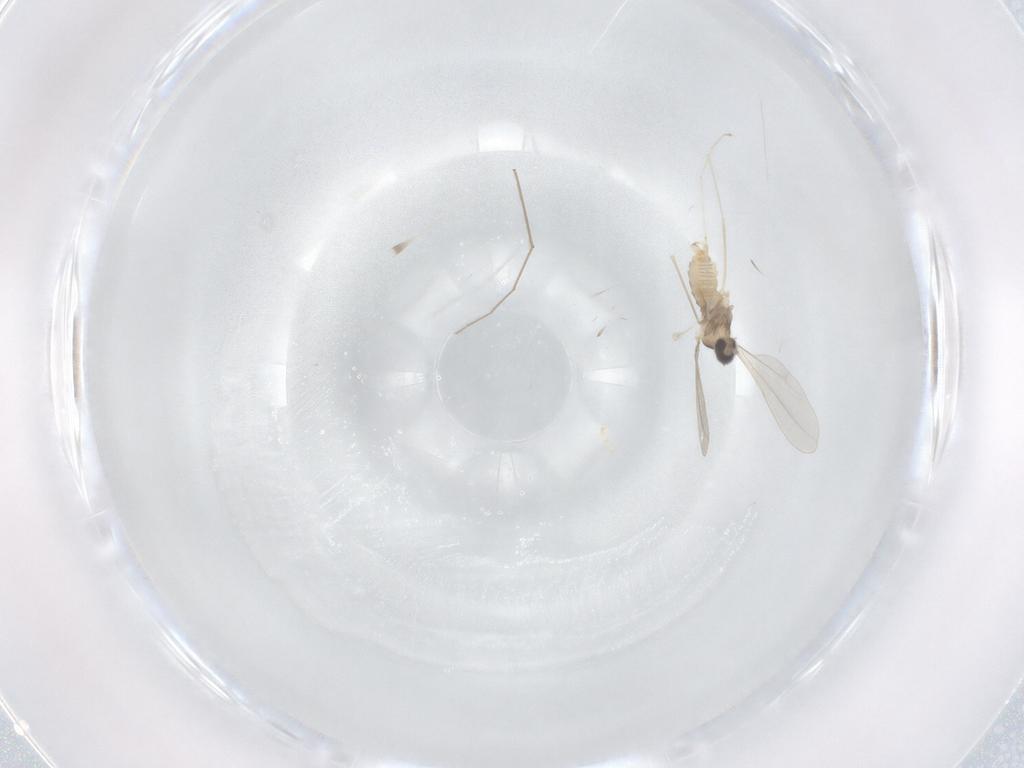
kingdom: Animalia
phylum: Arthropoda
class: Insecta
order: Diptera
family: Cecidomyiidae
